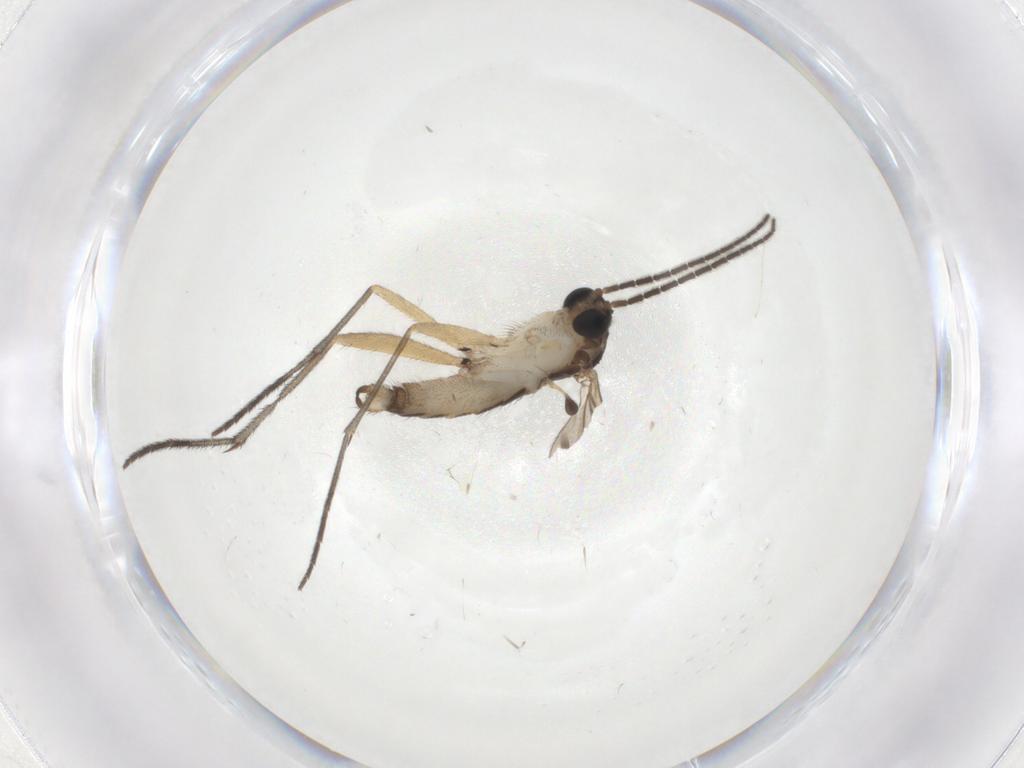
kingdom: Animalia
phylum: Arthropoda
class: Insecta
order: Diptera
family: Sciaridae
